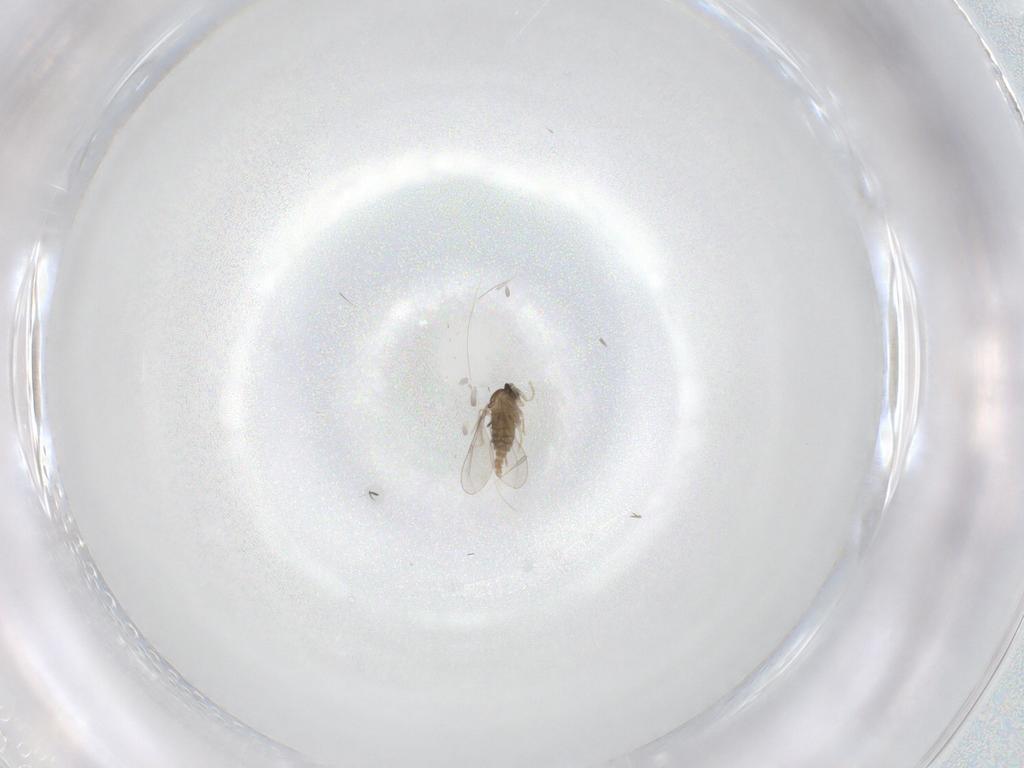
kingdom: Animalia
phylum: Arthropoda
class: Insecta
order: Diptera
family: Cecidomyiidae
